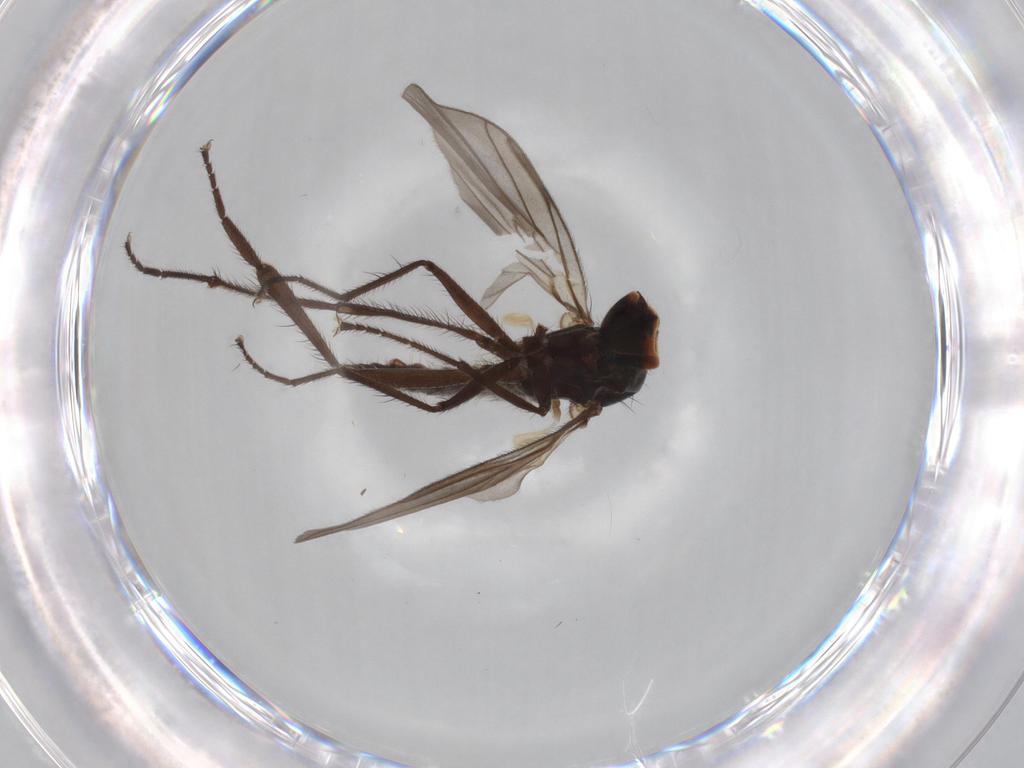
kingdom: Animalia
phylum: Arthropoda
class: Insecta
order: Diptera
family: Hybotidae
